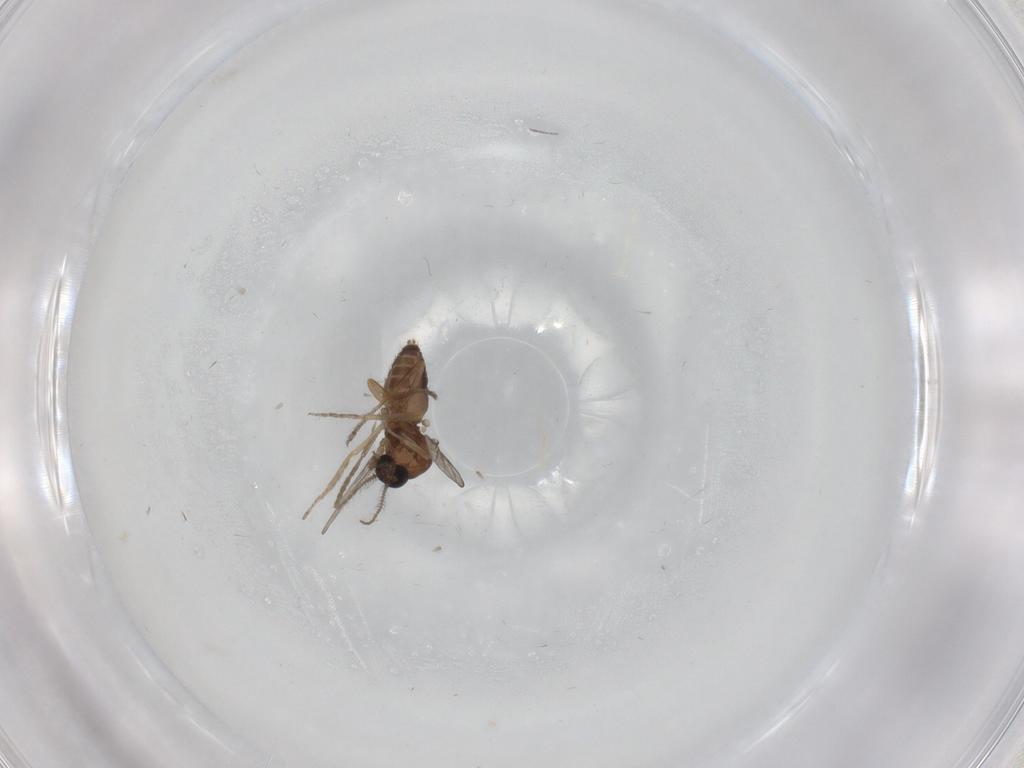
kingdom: Animalia
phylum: Arthropoda
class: Insecta
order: Diptera
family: Psychodidae
